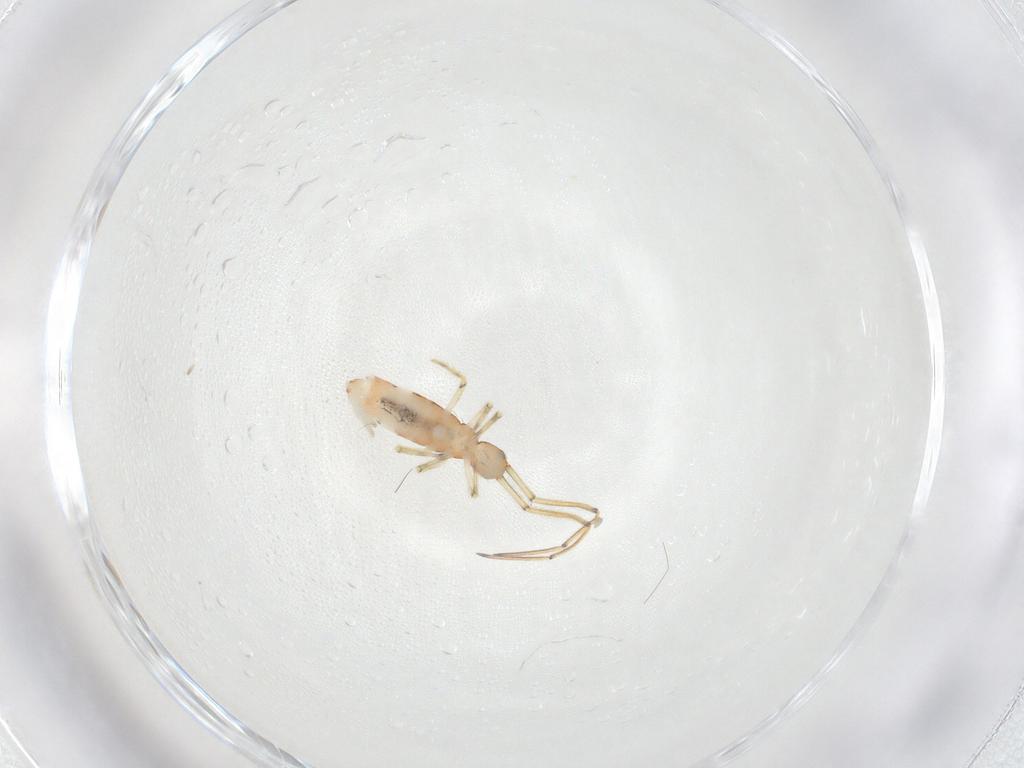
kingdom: Animalia
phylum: Arthropoda
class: Collembola
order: Entomobryomorpha
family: Paronellidae
